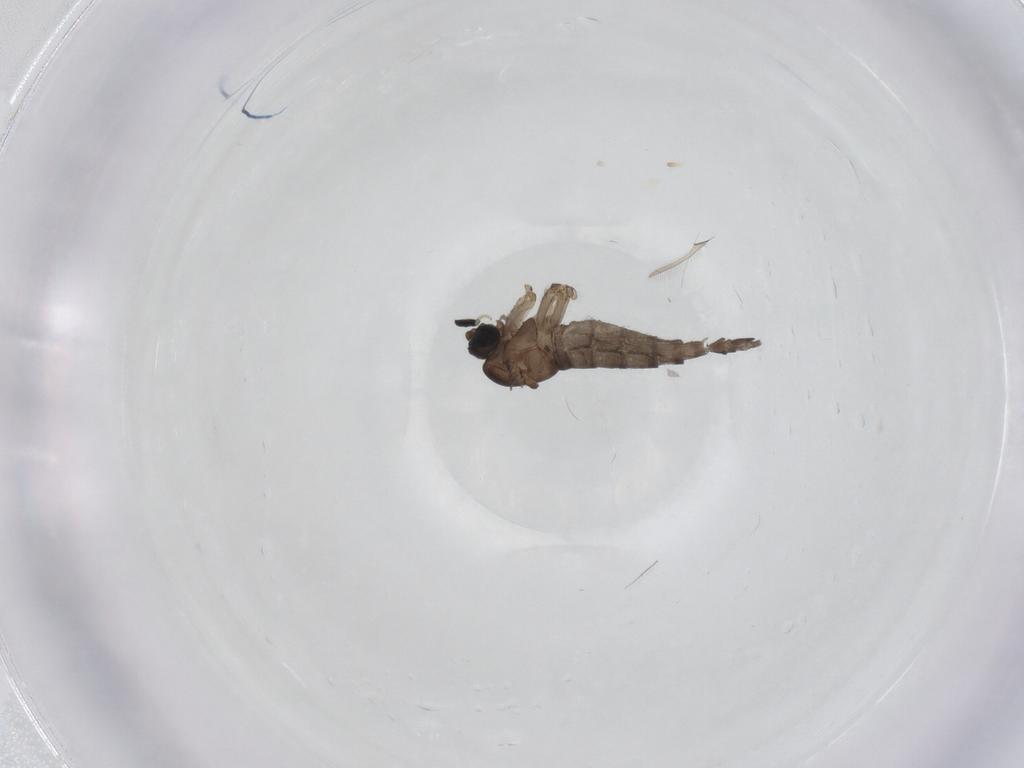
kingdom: Animalia
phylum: Arthropoda
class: Insecta
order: Diptera
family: Sciaridae
